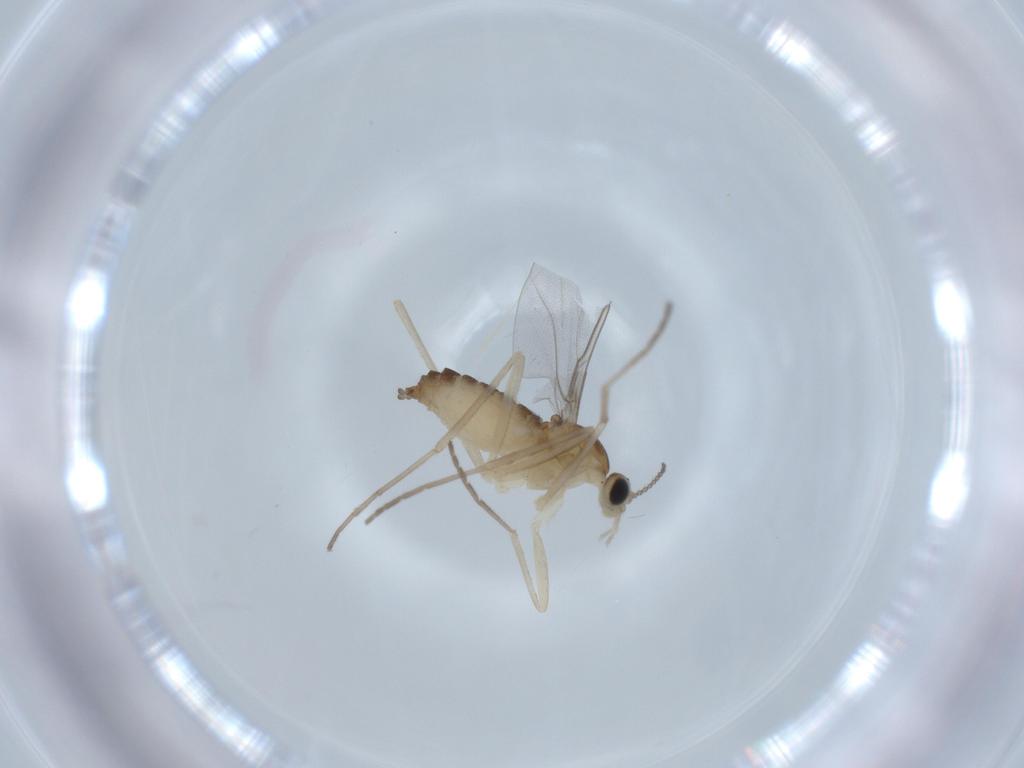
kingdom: Animalia
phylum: Arthropoda
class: Insecta
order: Diptera
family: Cecidomyiidae
